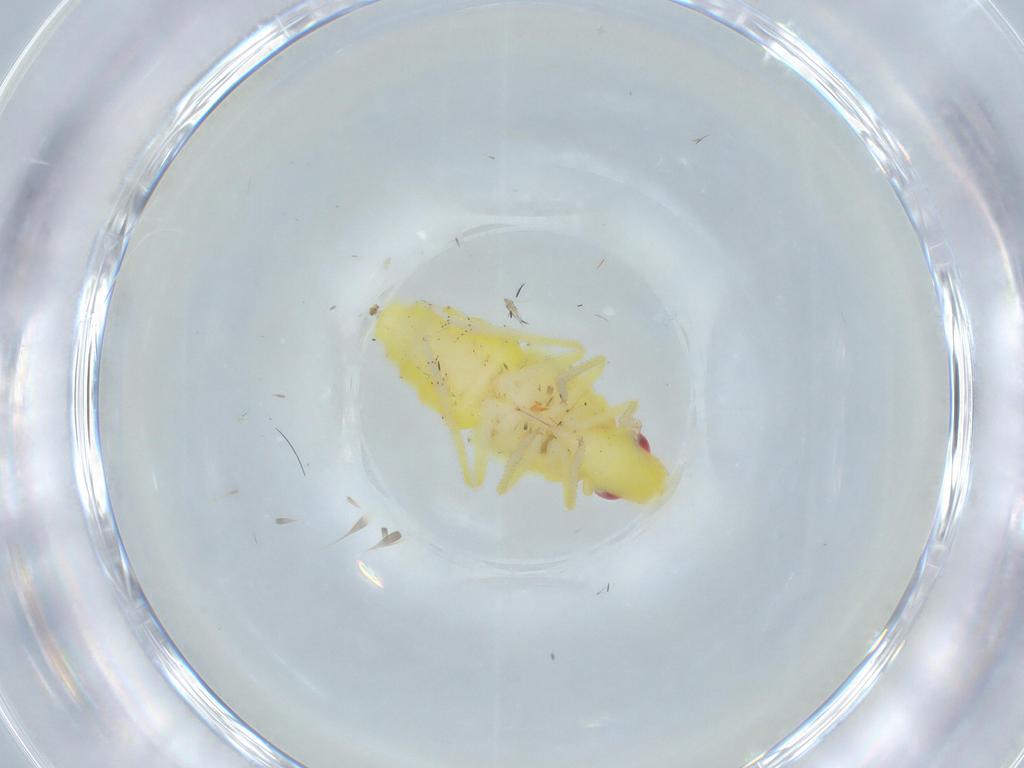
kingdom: Animalia
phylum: Arthropoda
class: Insecta
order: Hemiptera
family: Tropiduchidae
